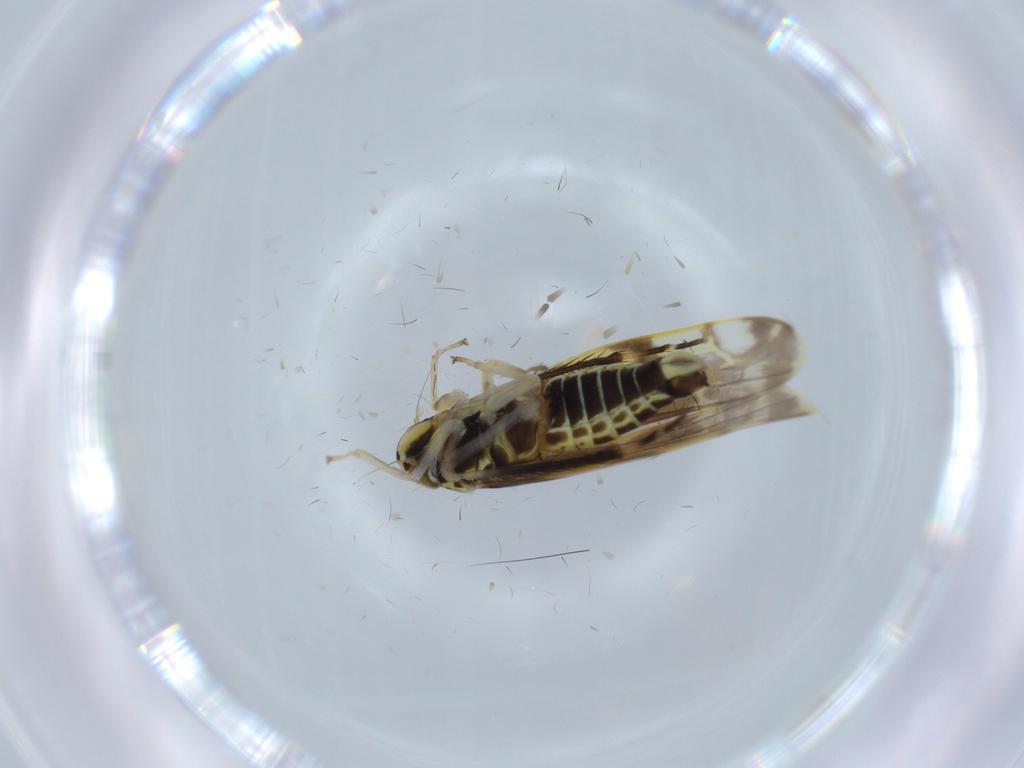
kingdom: Animalia
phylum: Arthropoda
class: Insecta
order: Hemiptera
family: Cicadellidae
